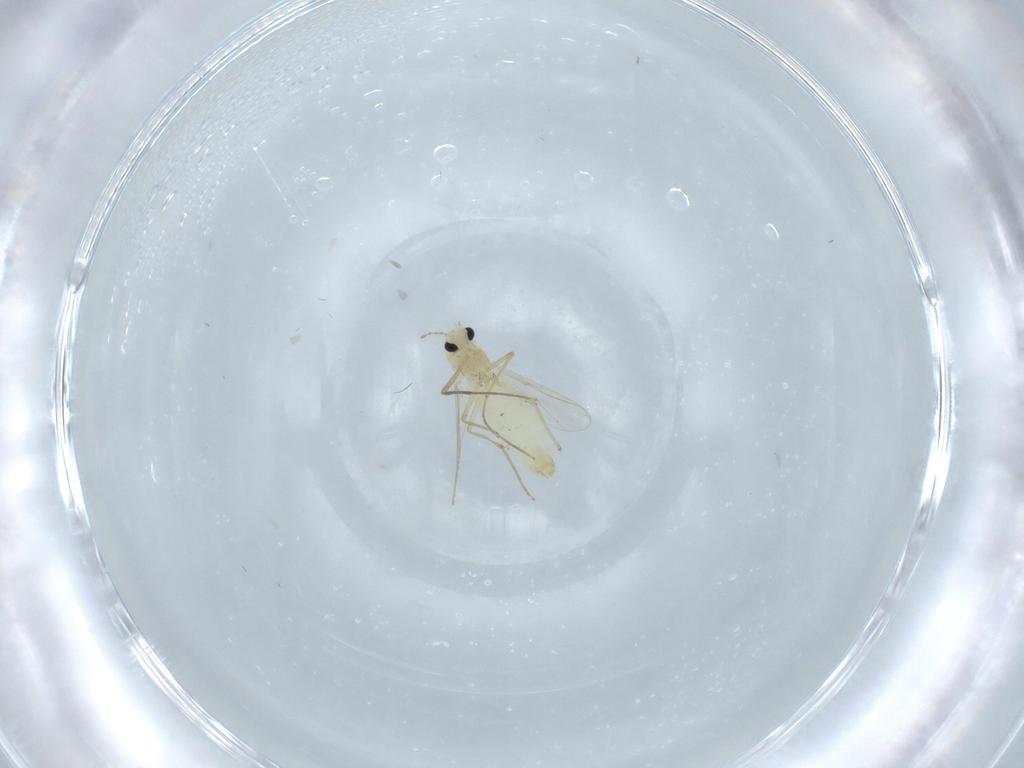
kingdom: Animalia
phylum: Arthropoda
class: Insecta
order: Diptera
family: Chironomidae
